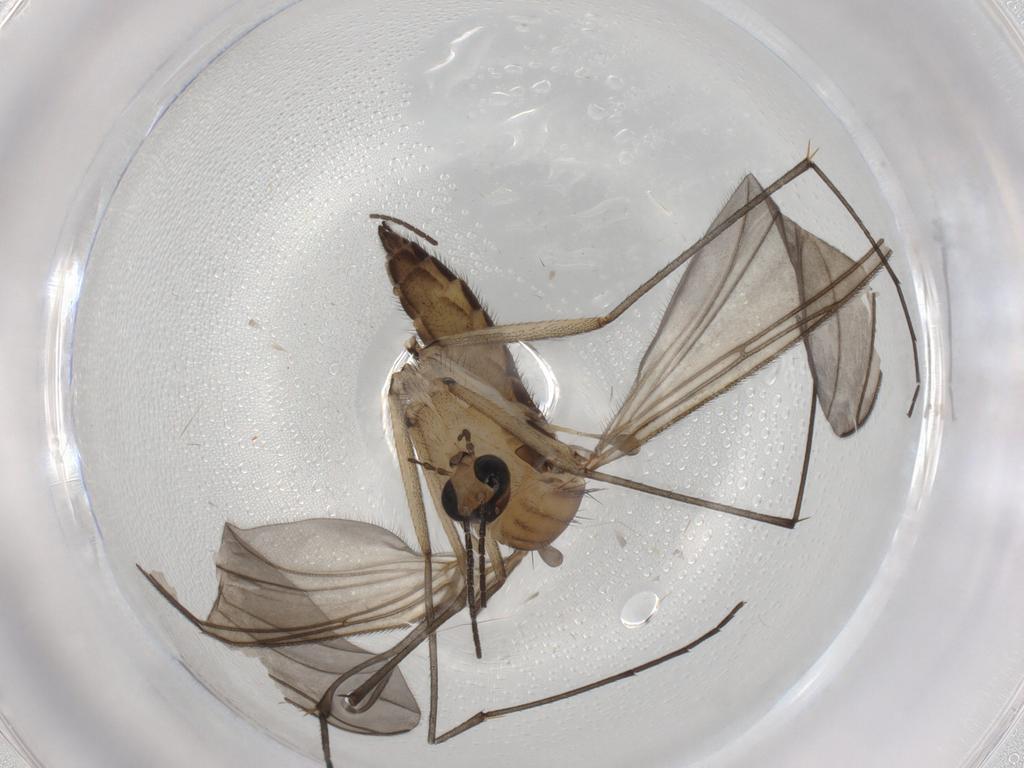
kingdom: Animalia
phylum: Arthropoda
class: Insecta
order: Diptera
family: Sciaridae
